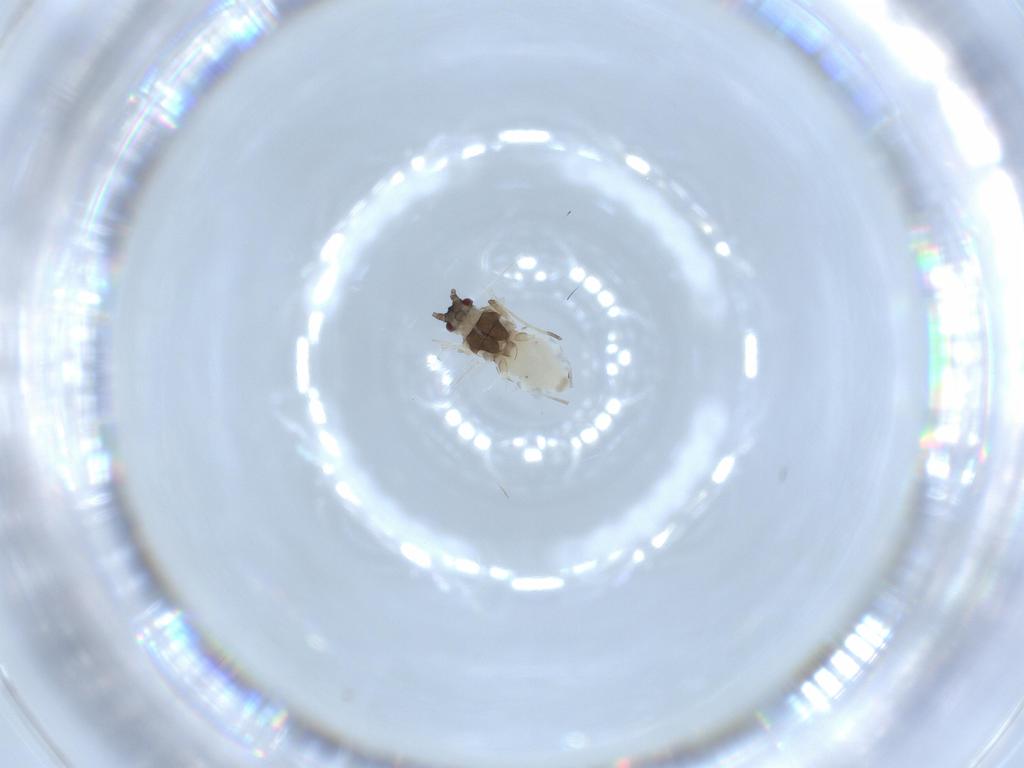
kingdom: Animalia
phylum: Arthropoda
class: Insecta
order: Hemiptera
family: Aphididae
